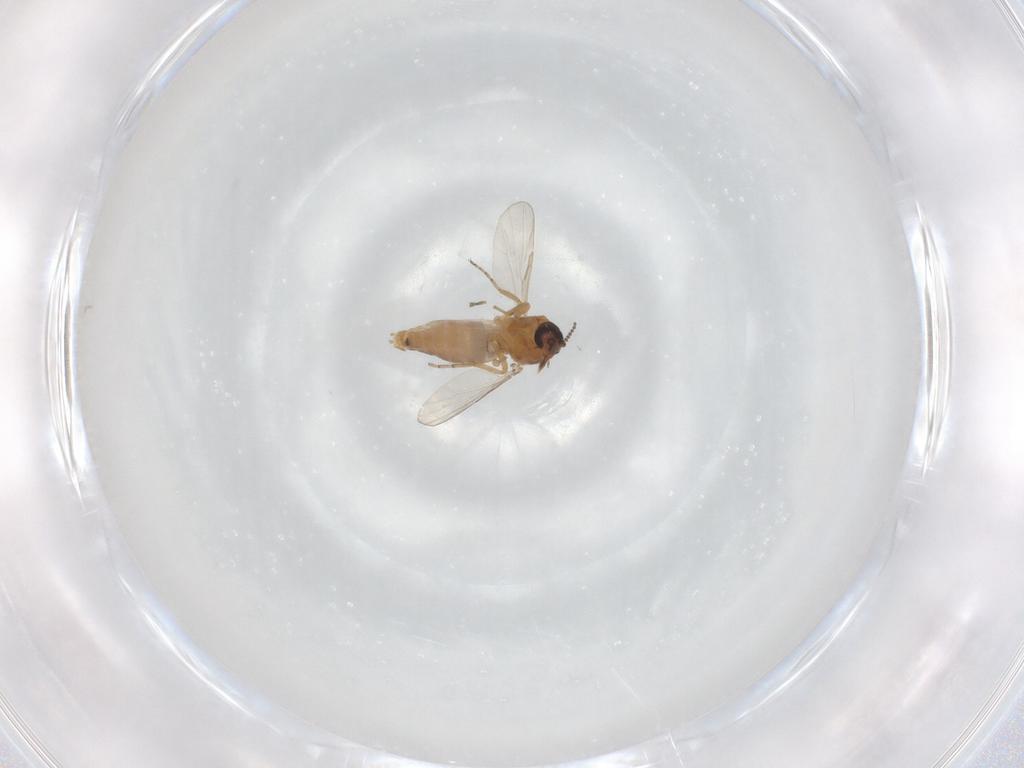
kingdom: Animalia
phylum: Arthropoda
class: Insecta
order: Diptera
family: Ceratopogonidae
